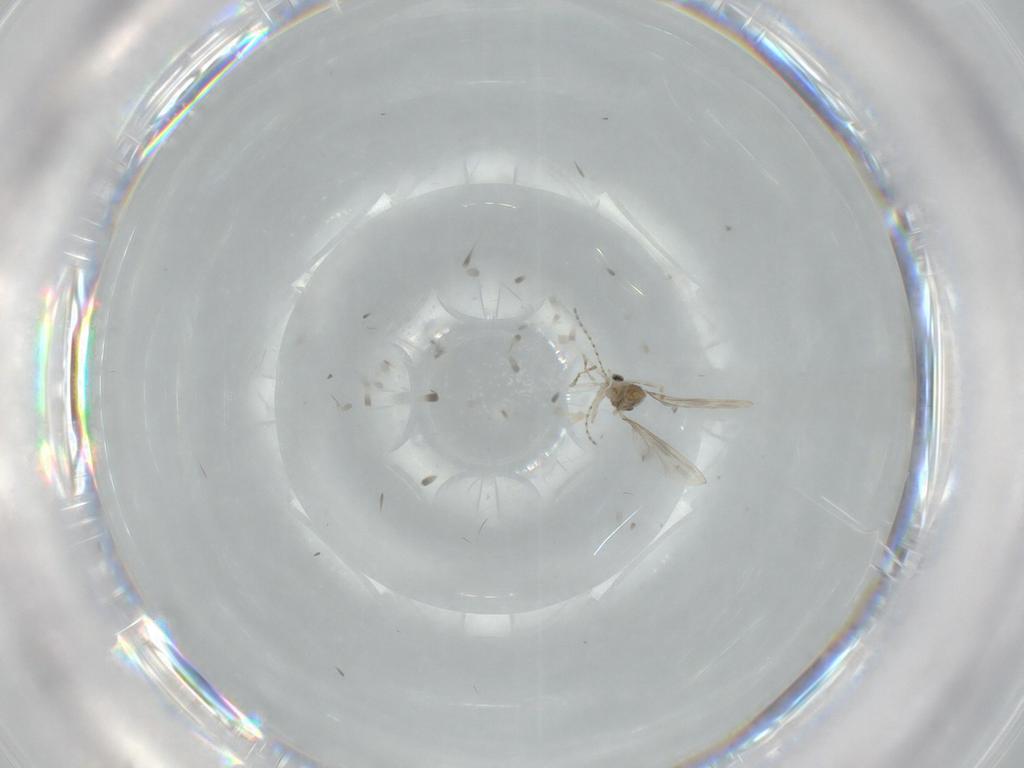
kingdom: Animalia
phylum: Arthropoda
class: Insecta
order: Diptera
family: Cecidomyiidae
